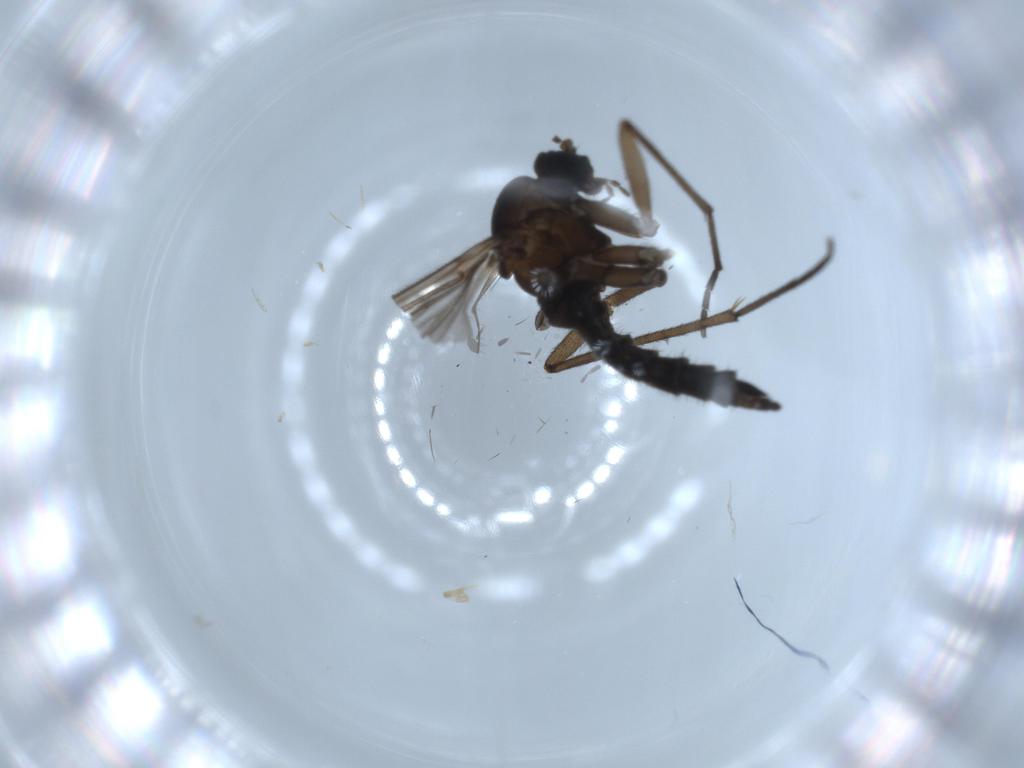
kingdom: Animalia
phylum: Arthropoda
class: Insecta
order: Diptera
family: Sciaridae
